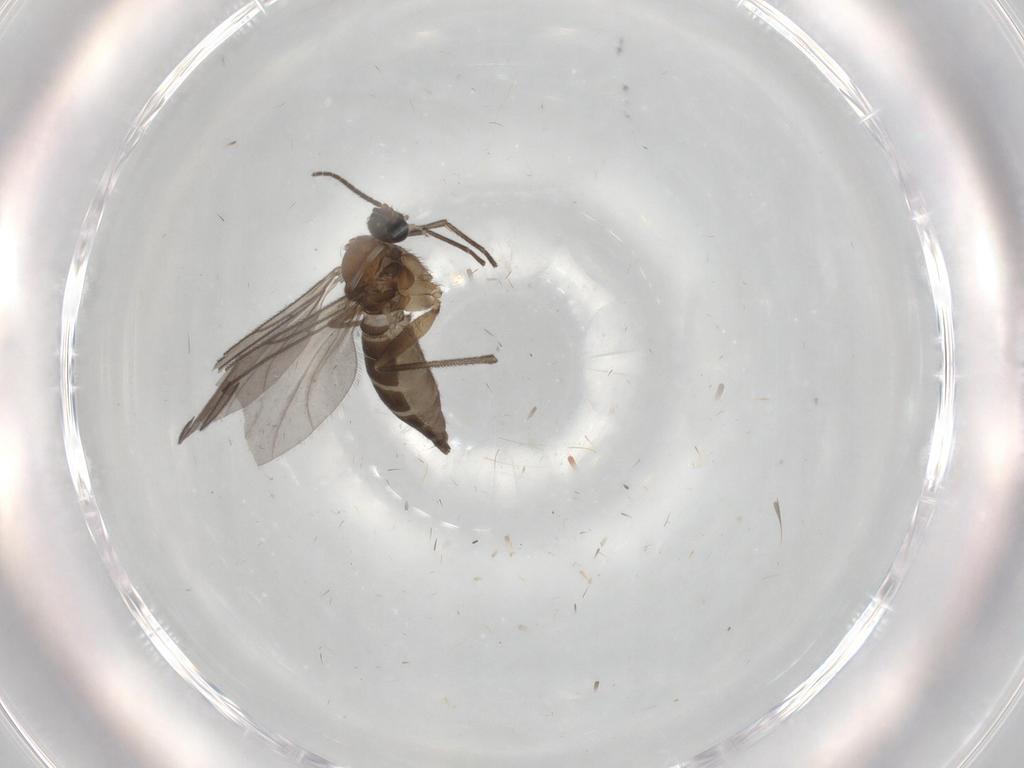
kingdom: Animalia
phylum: Arthropoda
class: Insecta
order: Diptera
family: Sciaridae
